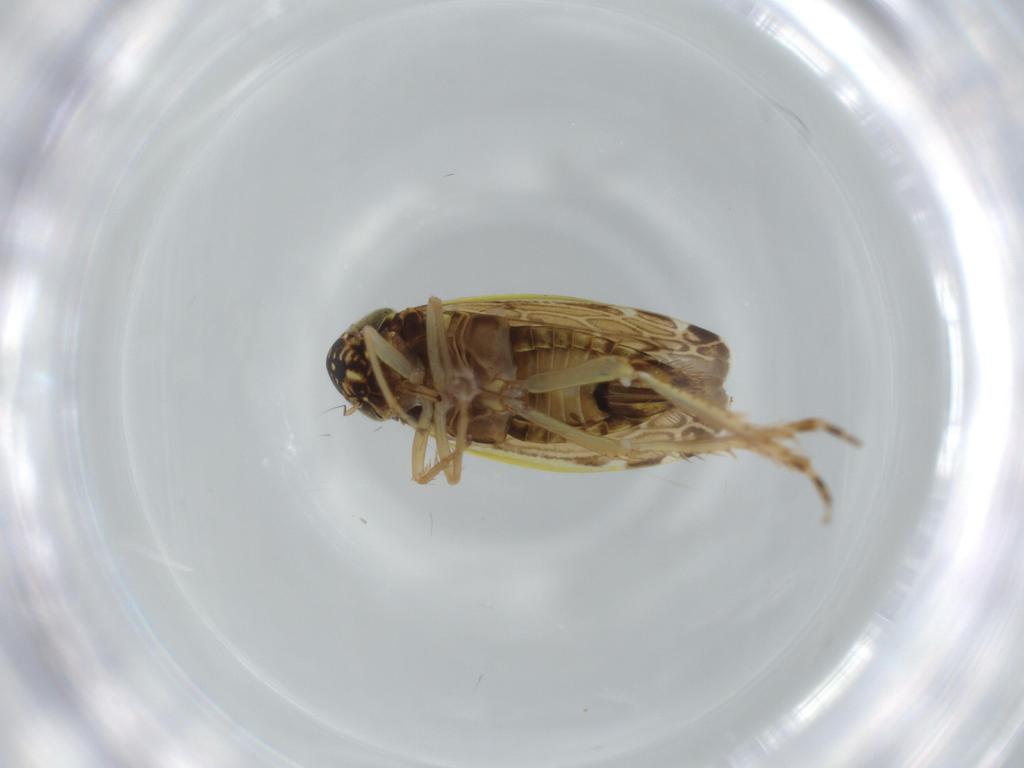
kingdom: Animalia
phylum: Arthropoda
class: Insecta
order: Hemiptera
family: Cicadellidae
